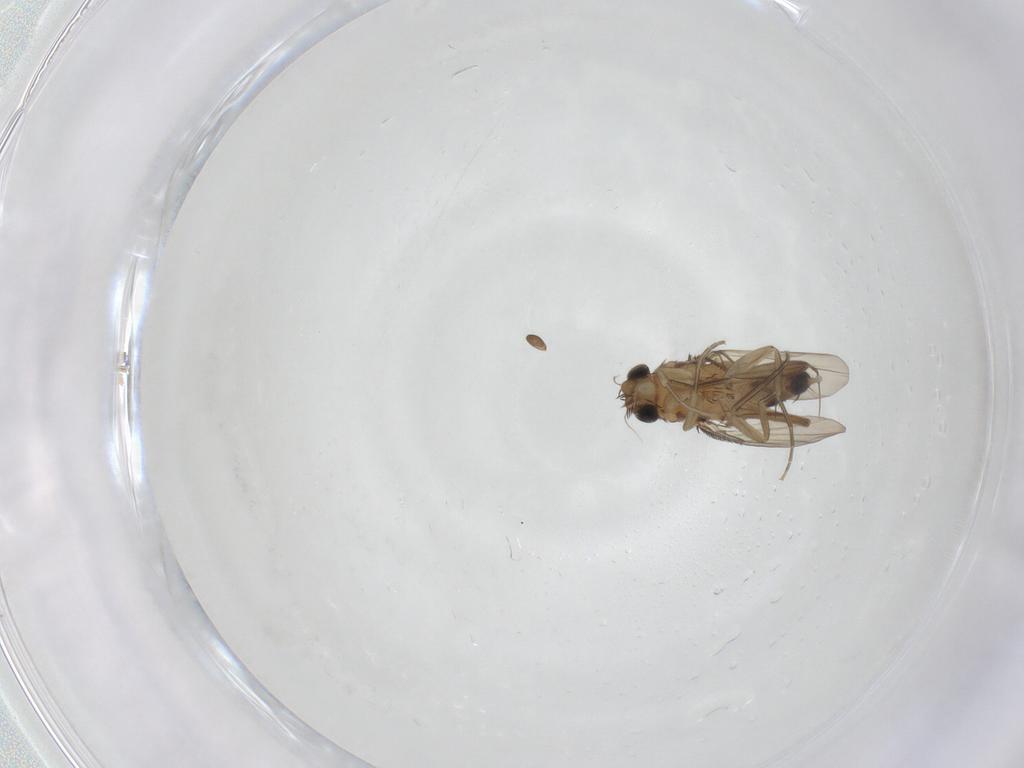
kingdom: Animalia
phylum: Arthropoda
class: Insecta
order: Diptera
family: Phoridae
